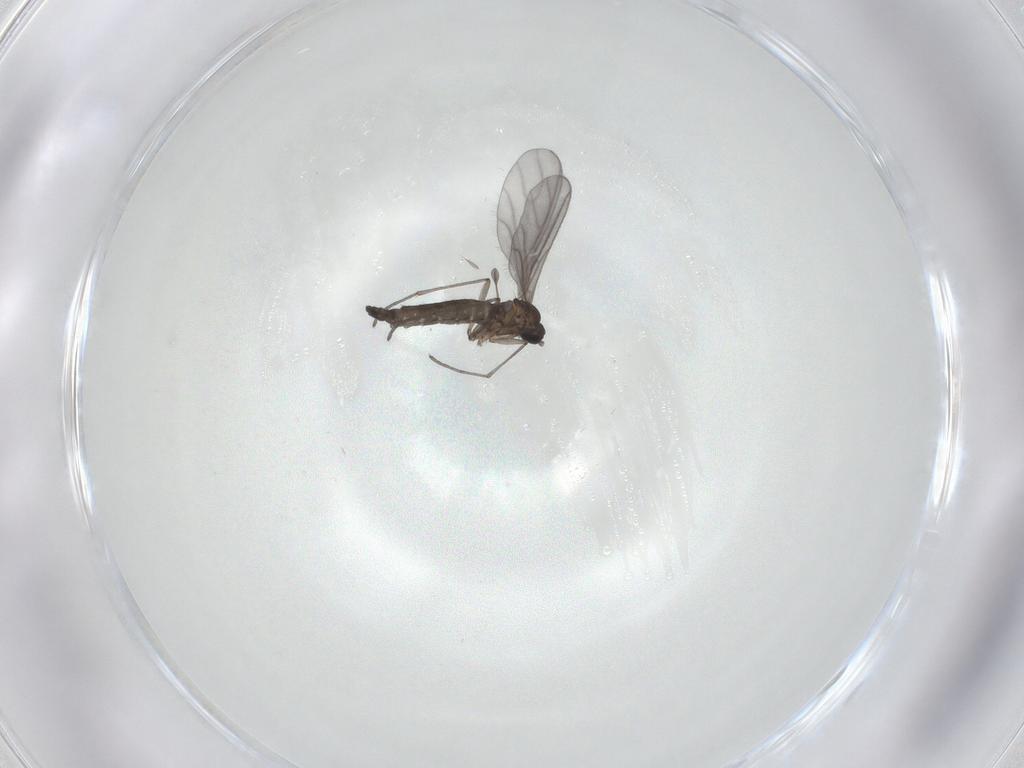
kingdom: Animalia
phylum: Arthropoda
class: Insecta
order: Diptera
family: Sciaridae
